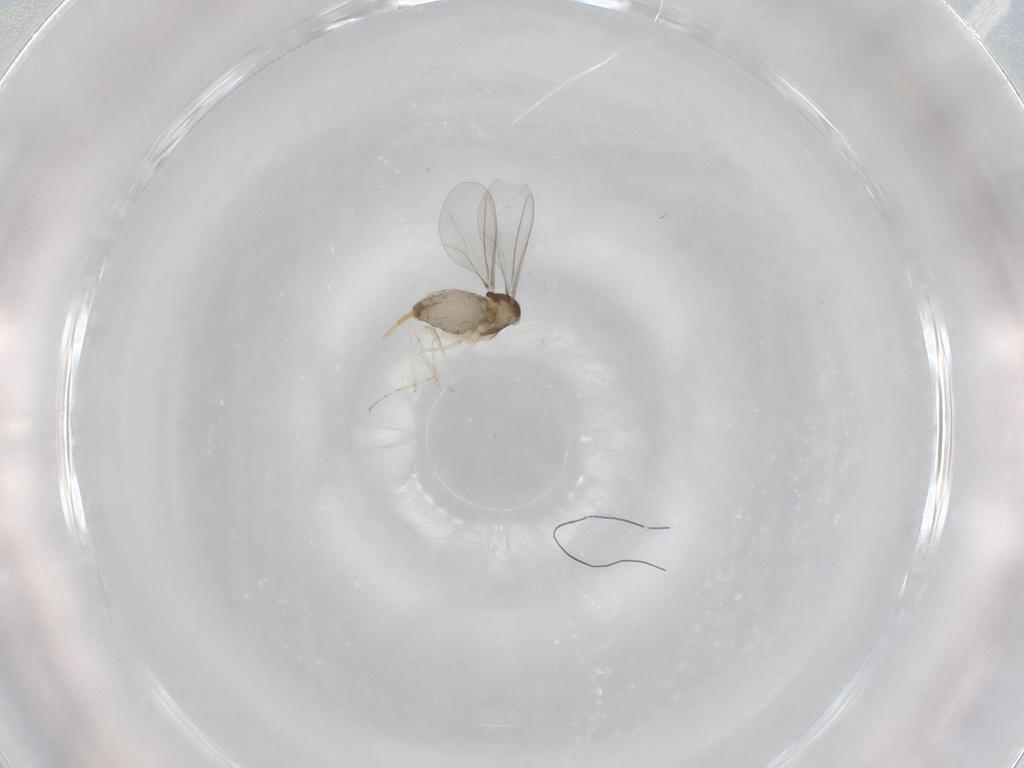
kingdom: Animalia
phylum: Arthropoda
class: Insecta
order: Diptera
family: Cecidomyiidae
